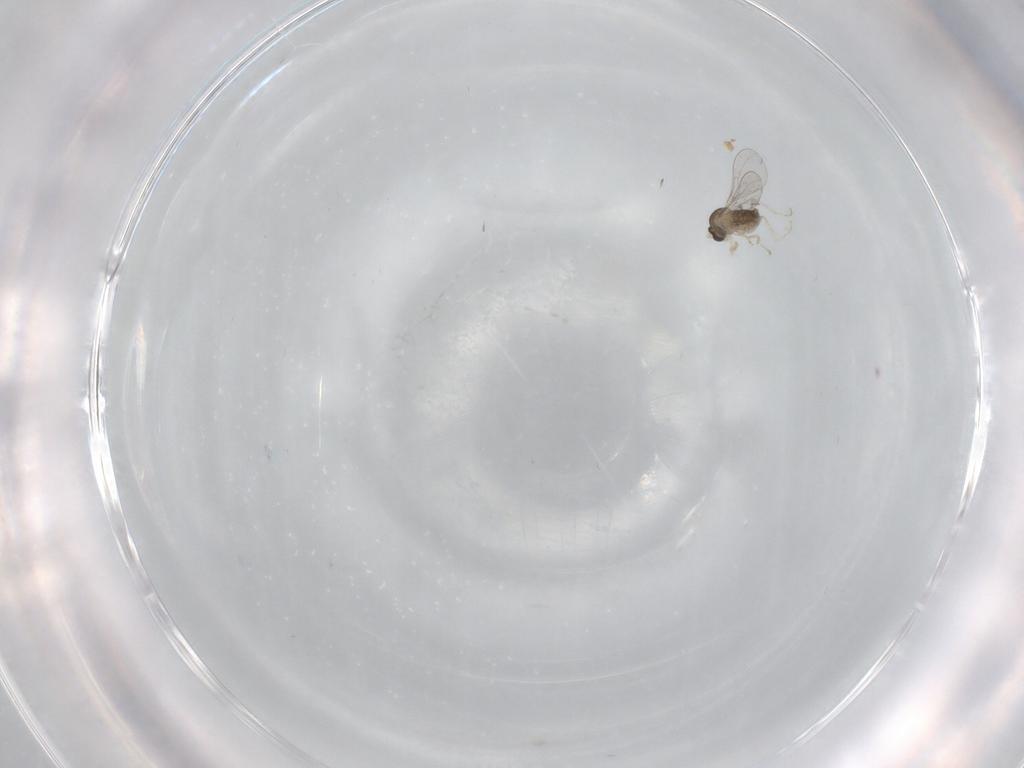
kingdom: Animalia
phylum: Arthropoda
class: Insecta
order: Diptera
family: Cecidomyiidae
